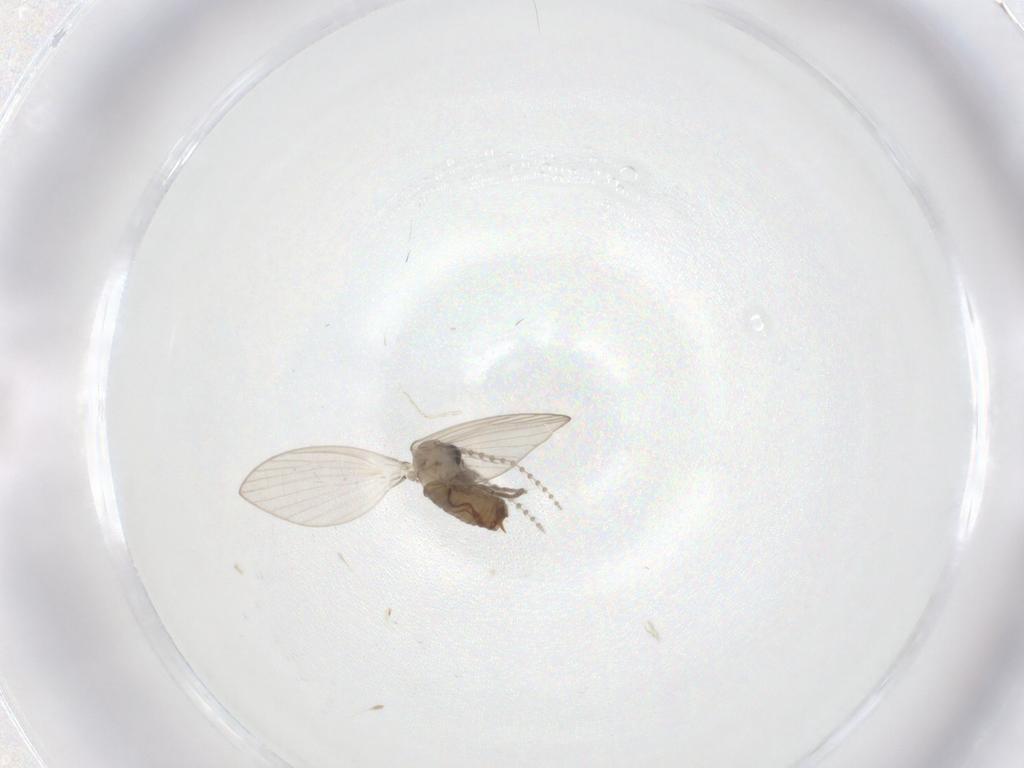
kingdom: Animalia
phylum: Arthropoda
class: Insecta
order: Diptera
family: Psychodidae
